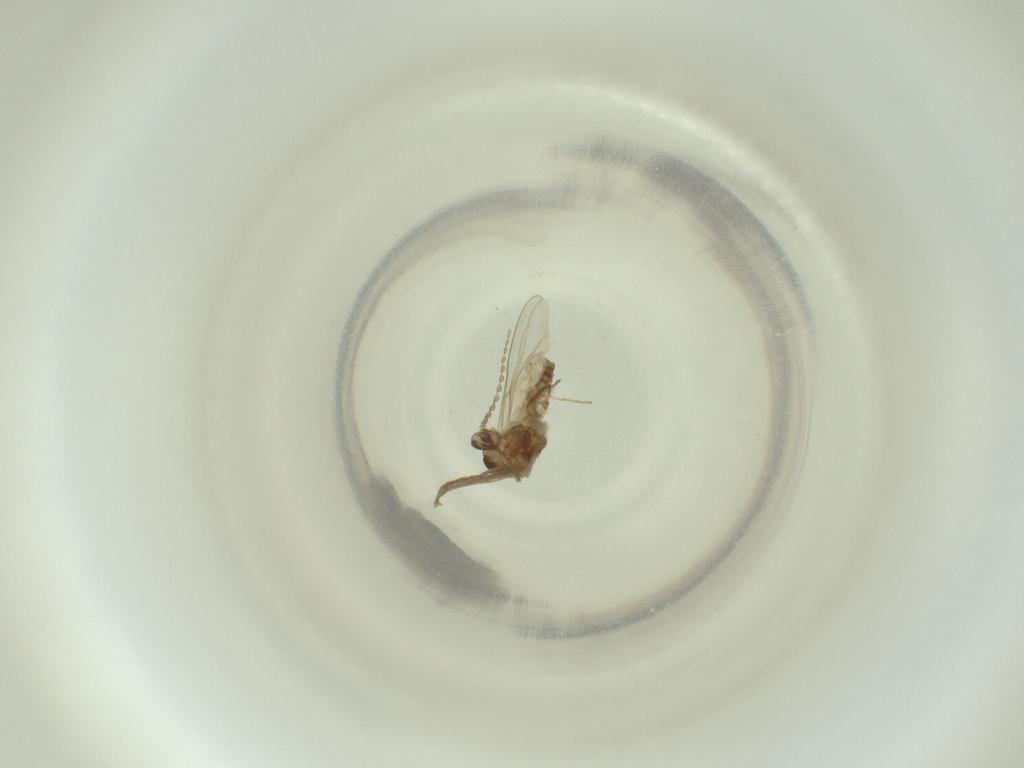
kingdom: Animalia
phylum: Arthropoda
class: Insecta
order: Diptera
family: Cecidomyiidae
